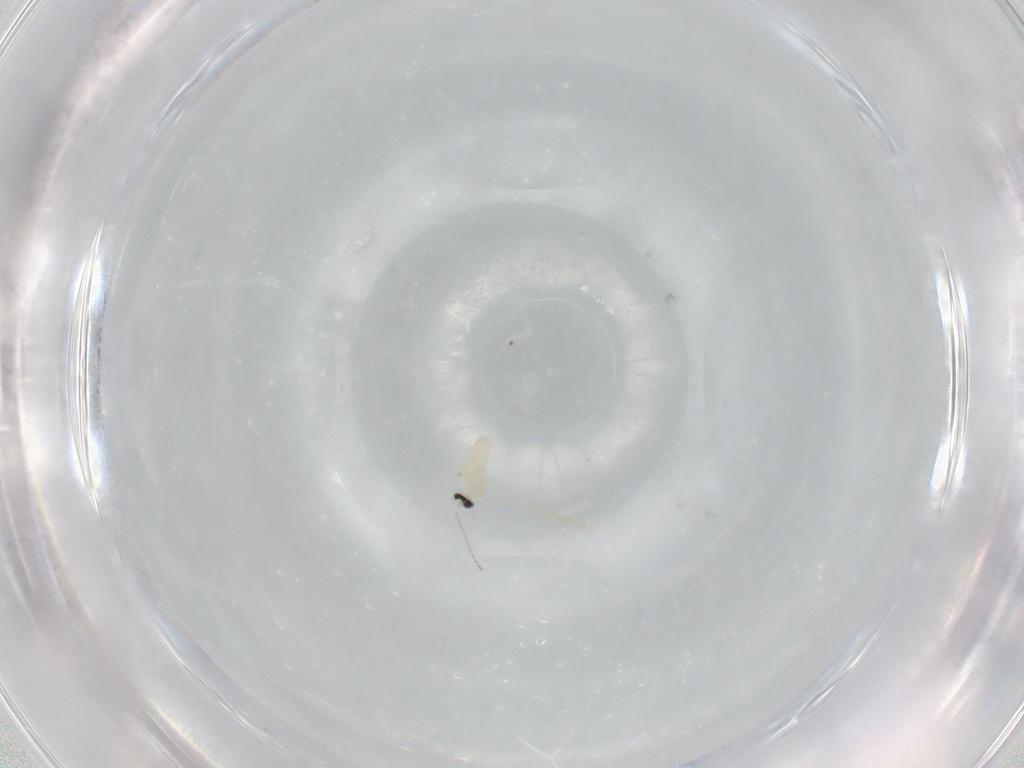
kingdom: Animalia
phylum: Arthropoda
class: Insecta
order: Diptera
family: Cecidomyiidae
